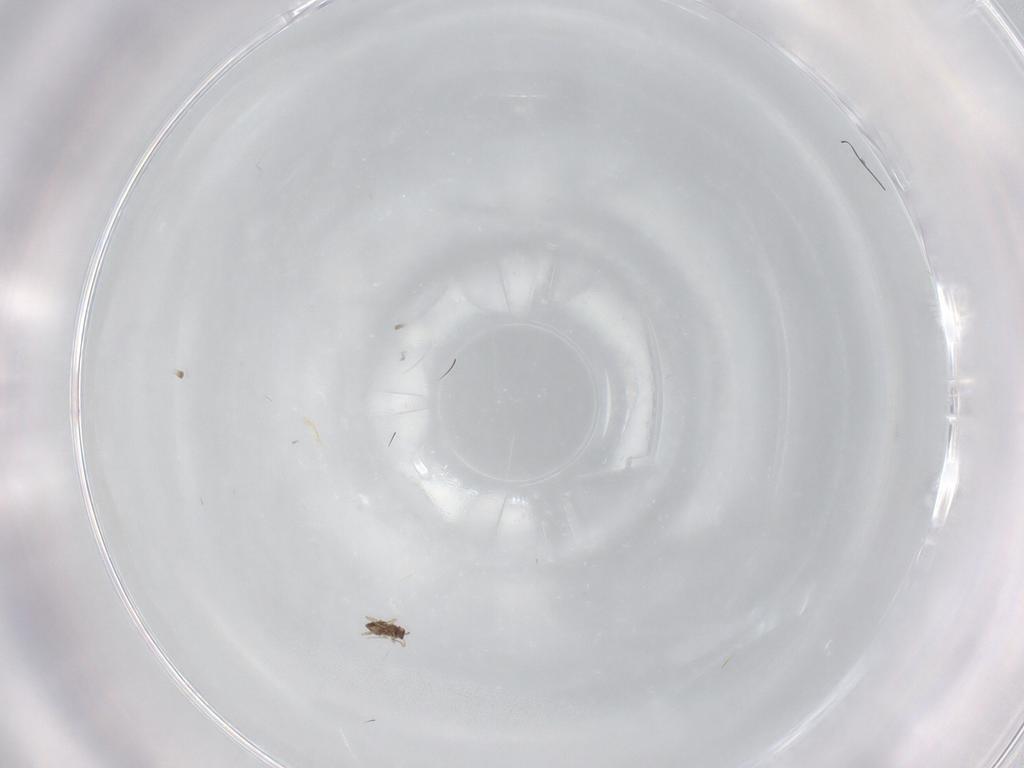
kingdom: Animalia
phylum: Arthropoda
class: Insecta
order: Hymenoptera
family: Mymaridae
